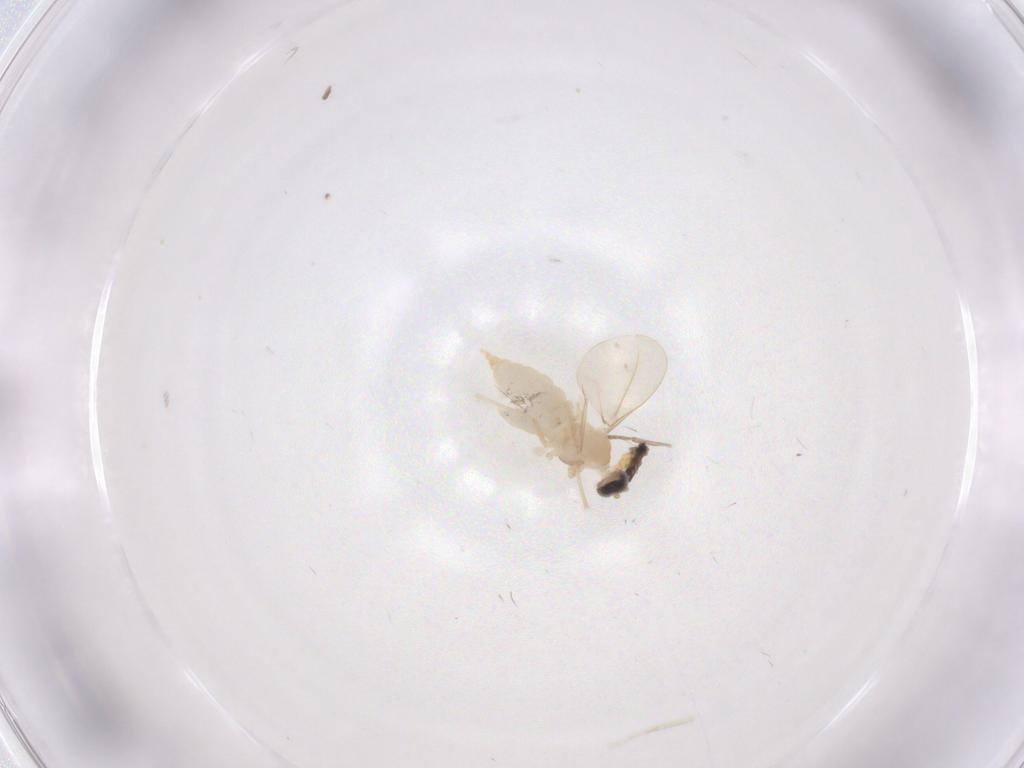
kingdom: Animalia
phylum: Arthropoda
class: Insecta
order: Diptera
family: Cecidomyiidae
